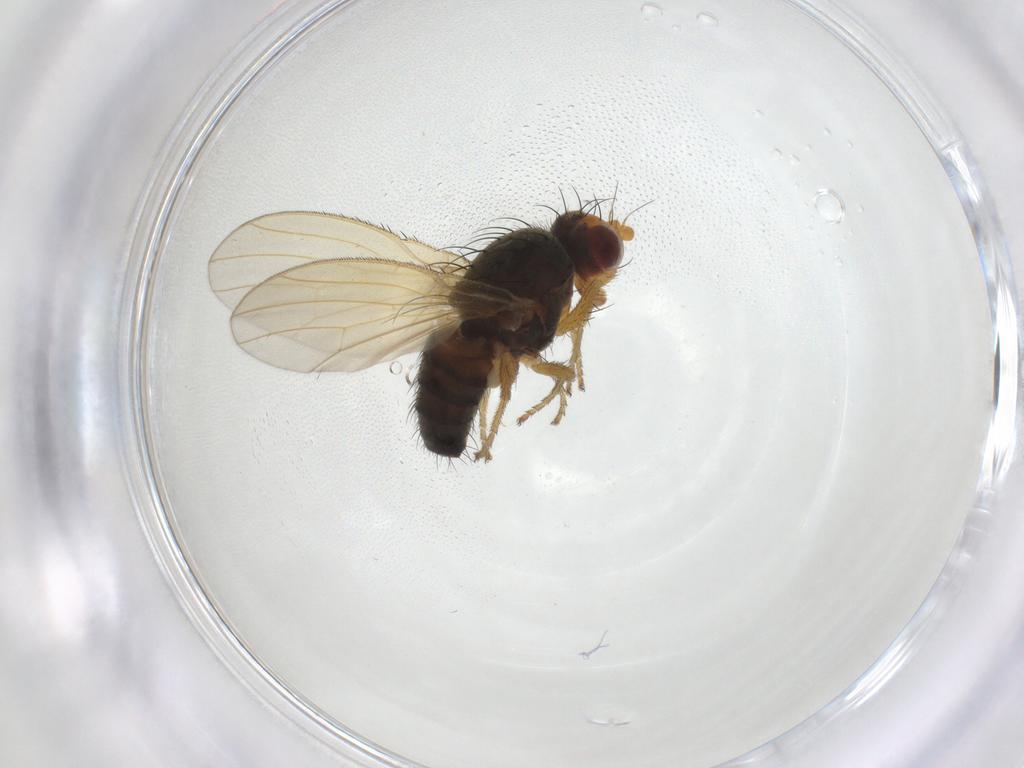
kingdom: Animalia
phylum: Arthropoda
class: Insecta
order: Diptera
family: Heleomyzidae
